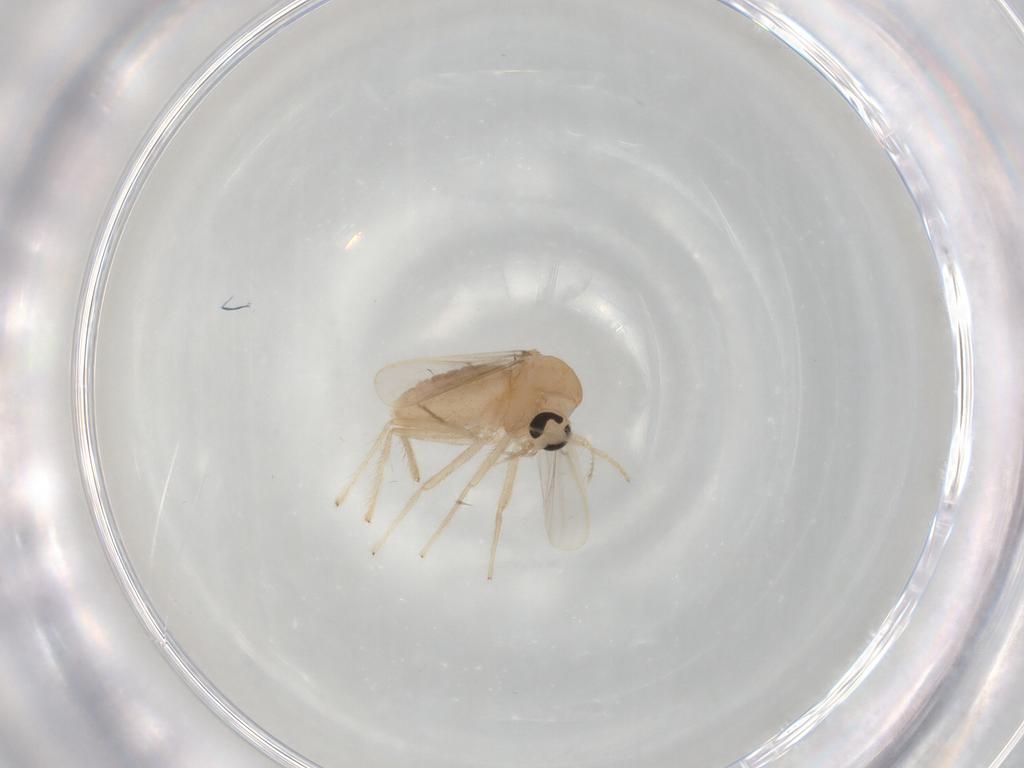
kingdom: Animalia
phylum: Arthropoda
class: Insecta
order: Diptera
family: Chironomidae
